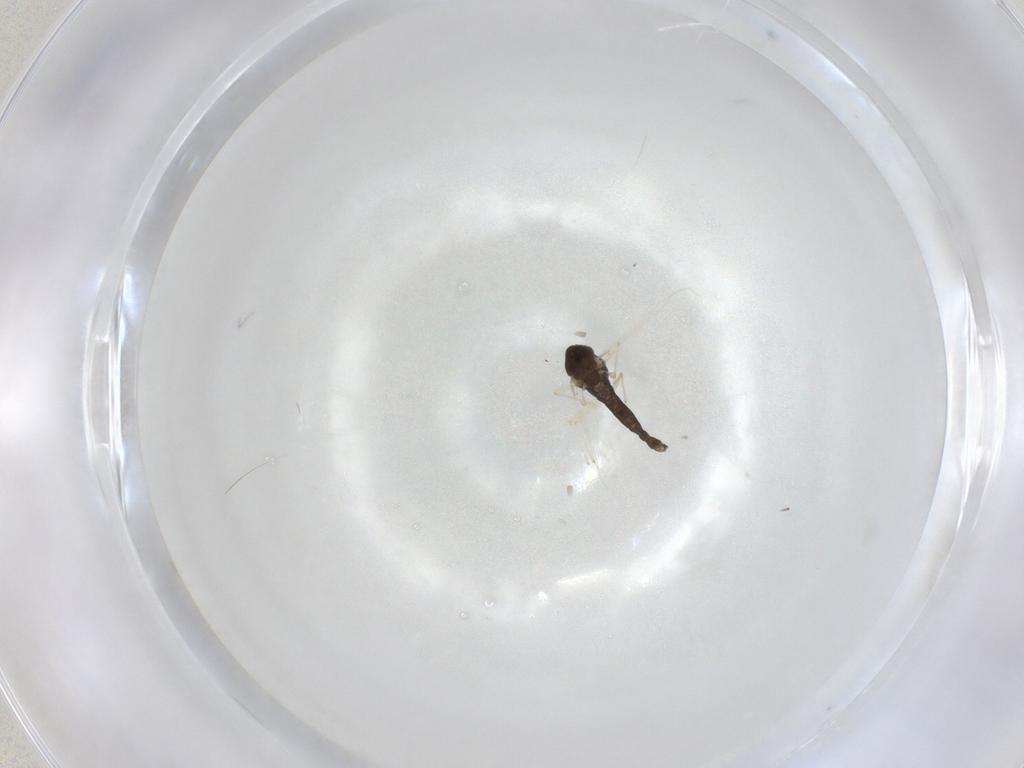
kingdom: Animalia
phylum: Arthropoda
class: Insecta
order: Diptera
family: Chironomidae
